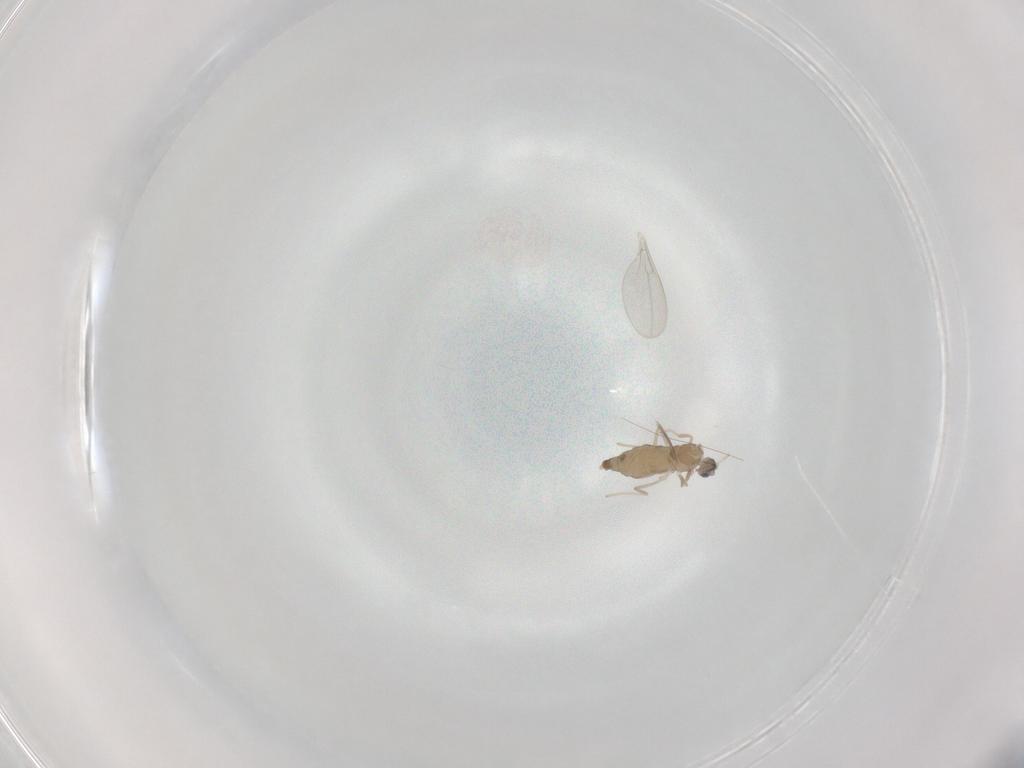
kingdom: Animalia
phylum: Arthropoda
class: Insecta
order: Diptera
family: Cecidomyiidae
